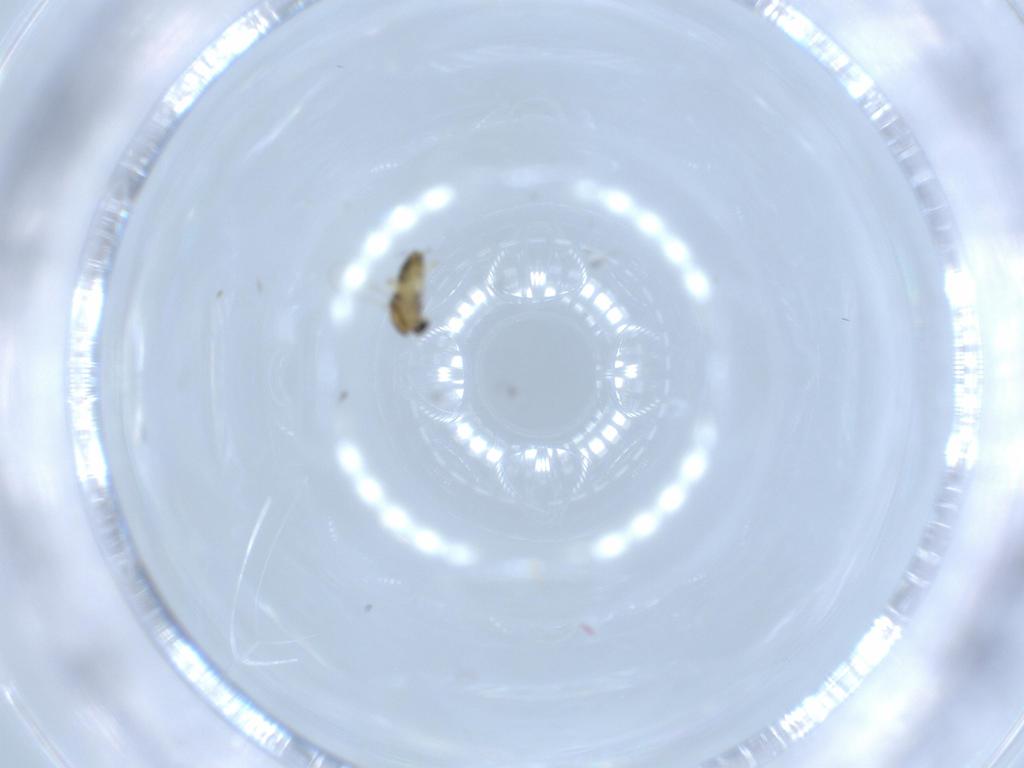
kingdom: Animalia
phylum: Arthropoda
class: Insecta
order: Diptera
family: Chironomidae
